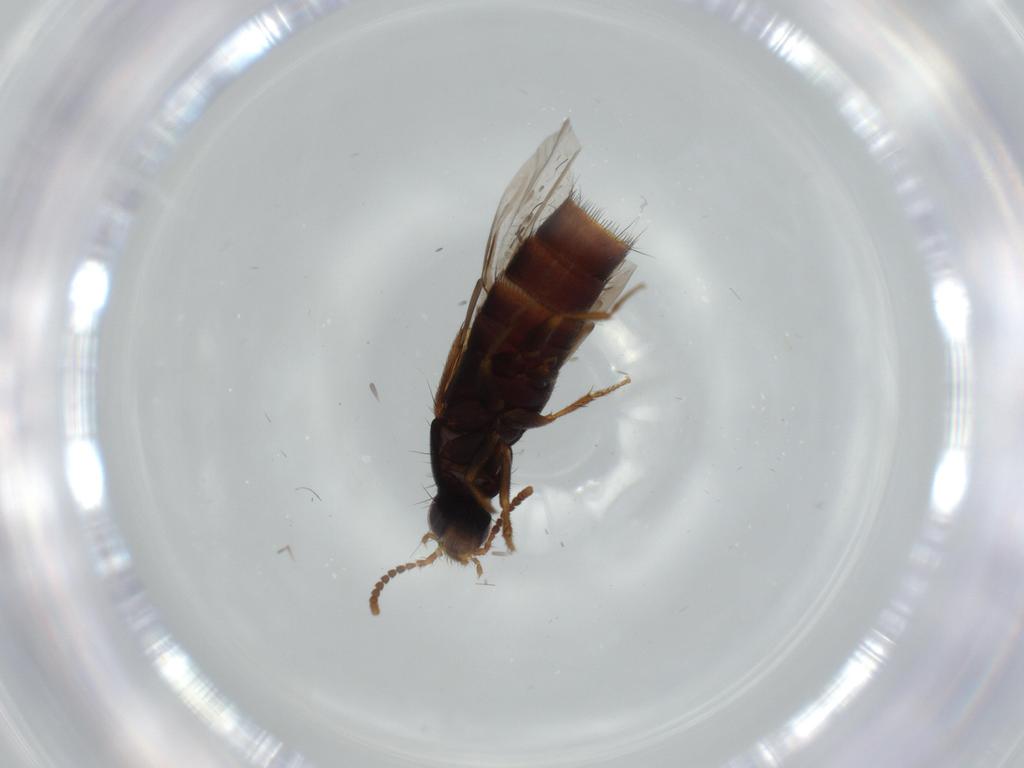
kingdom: Animalia
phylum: Arthropoda
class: Insecta
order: Coleoptera
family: Staphylinidae
